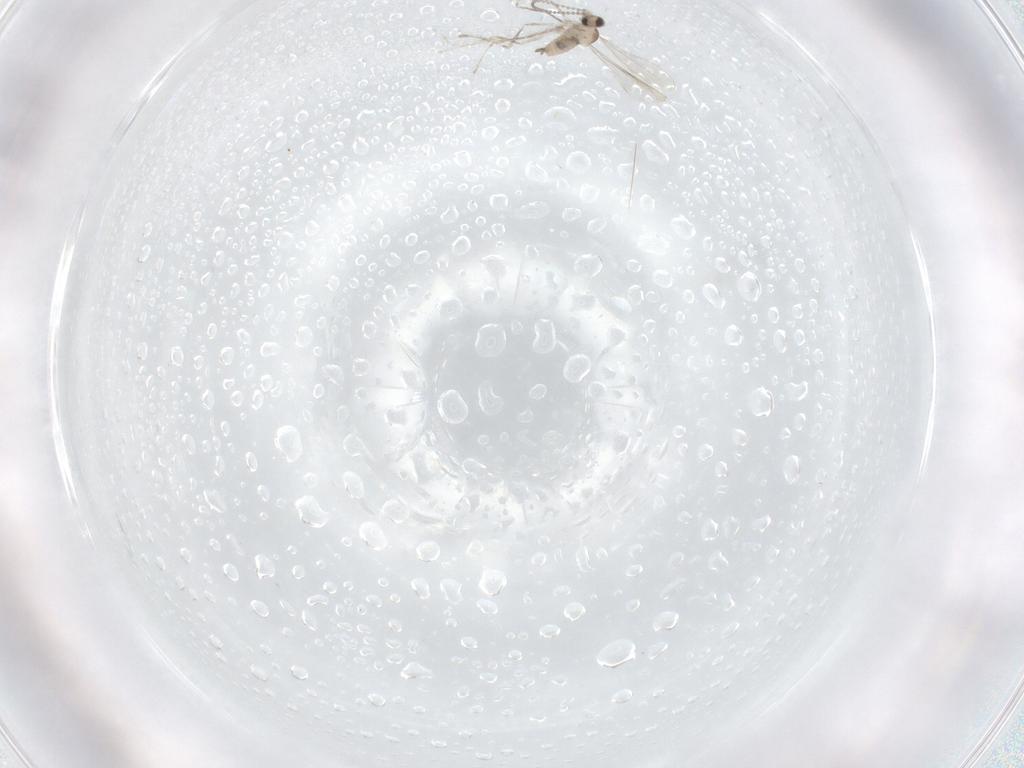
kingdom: Animalia
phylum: Arthropoda
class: Insecta
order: Diptera
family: Cecidomyiidae
